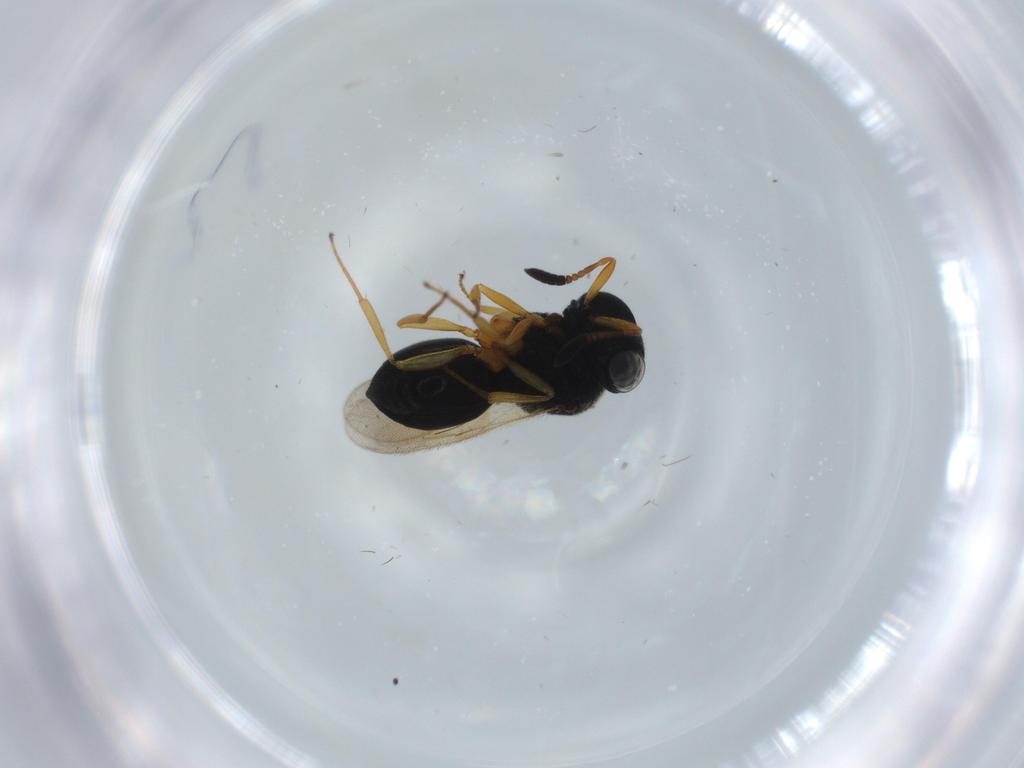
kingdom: Animalia
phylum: Arthropoda
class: Insecta
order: Hymenoptera
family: Scelionidae
